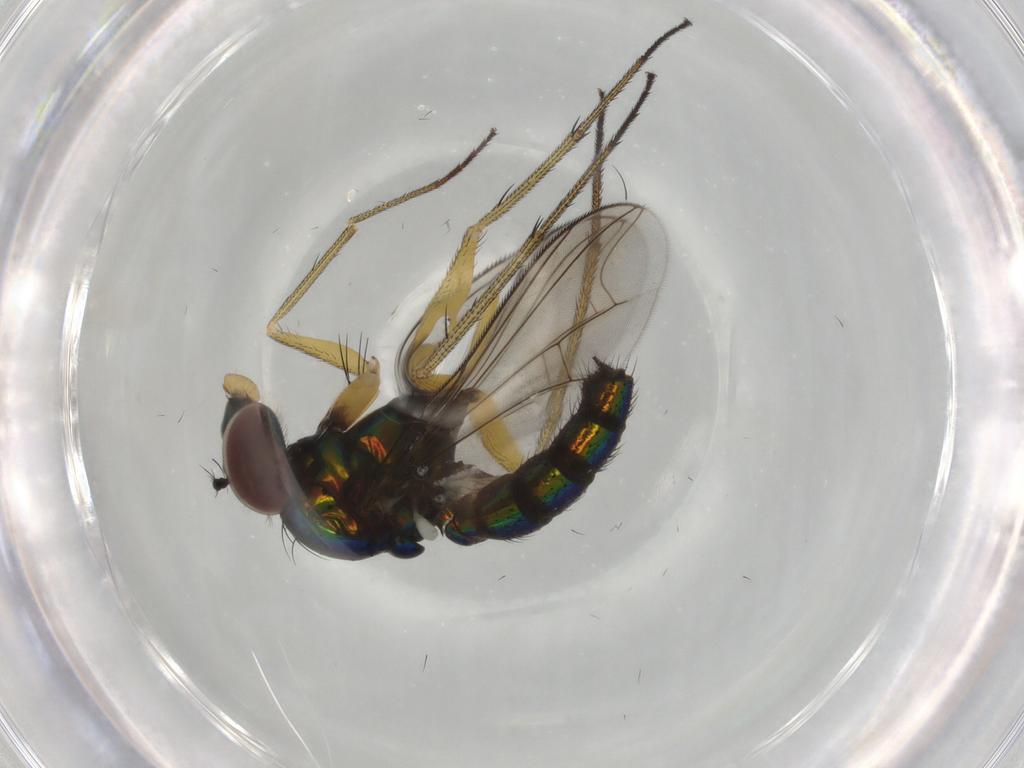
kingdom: Animalia
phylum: Arthropoda
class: Insecta
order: Diptera
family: Dolichopodidae
